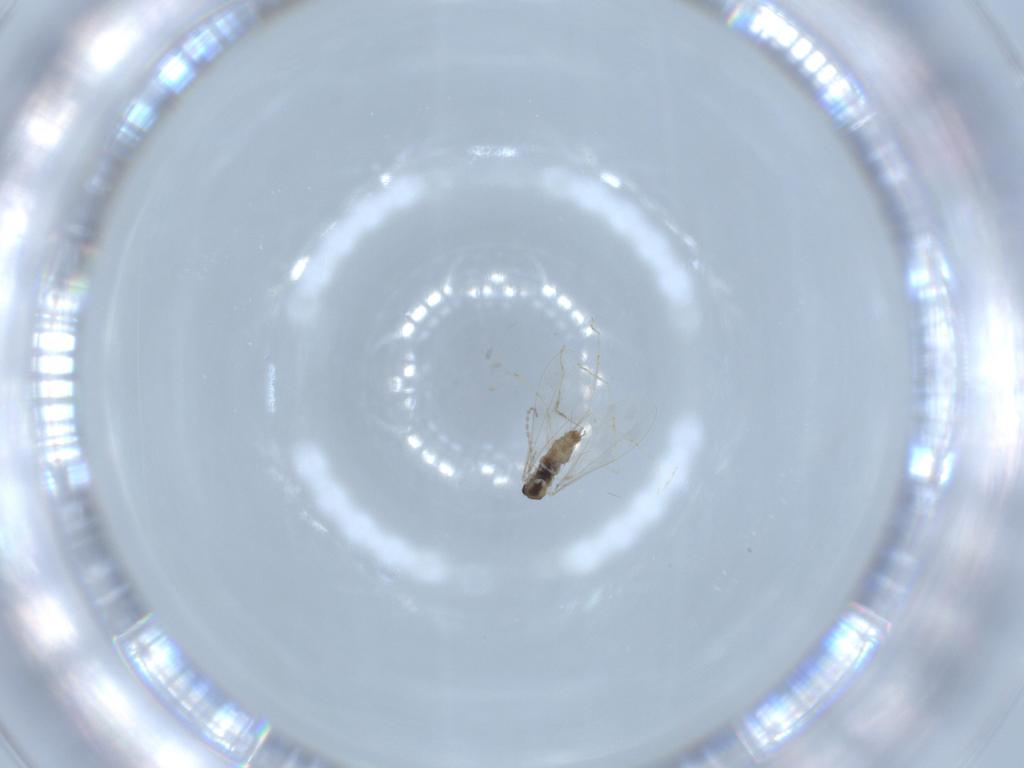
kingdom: Animalia
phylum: Arthropoda
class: Insecta
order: Diptera
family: Cecidomyiidae
